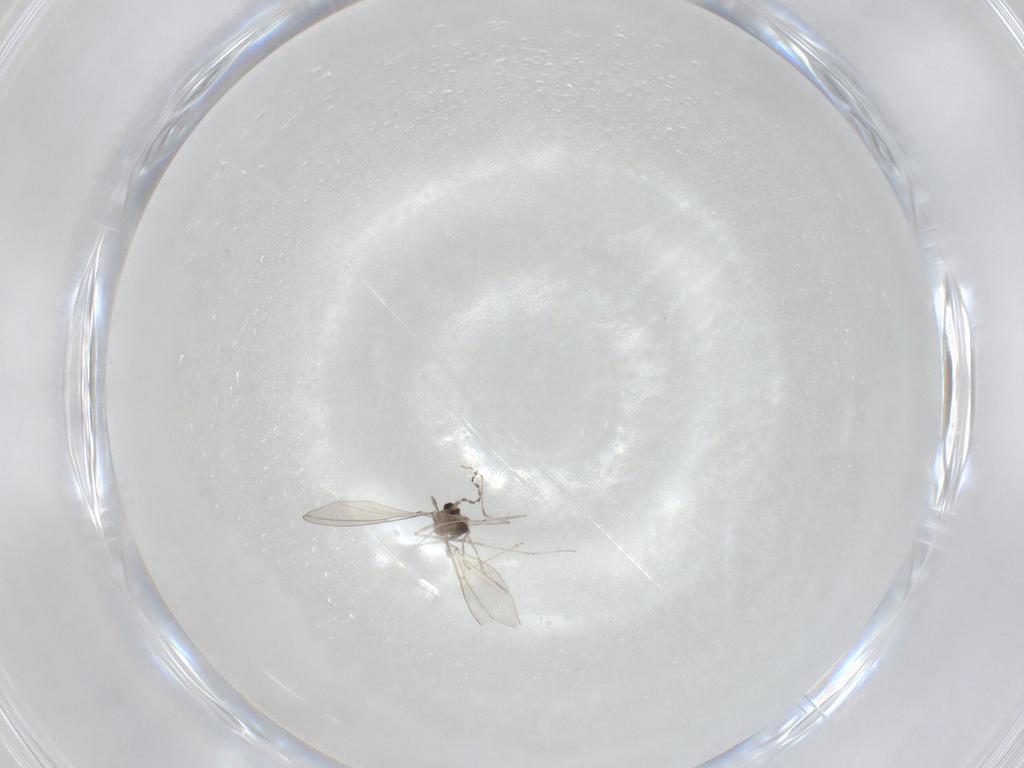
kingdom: Animalia
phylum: Arthropoda
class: Insecta
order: Diptera
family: Cecidomyiidae
